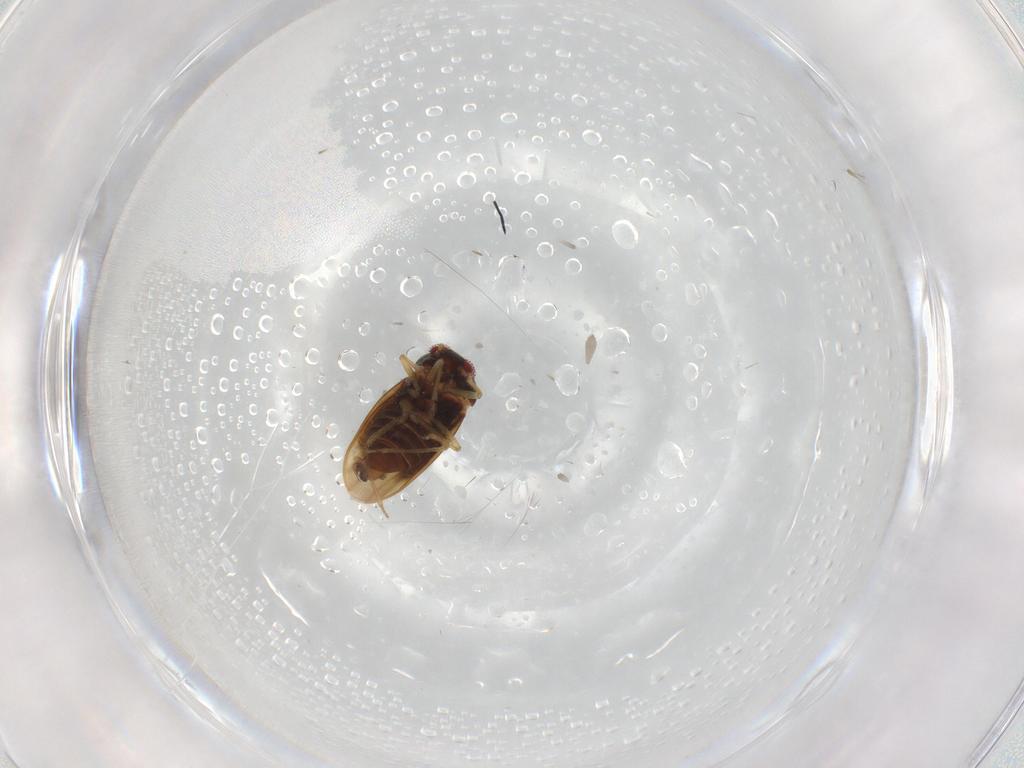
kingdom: Animalia
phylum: Arthropoda
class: Insecta
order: Hemiptera
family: Schizopteridae
